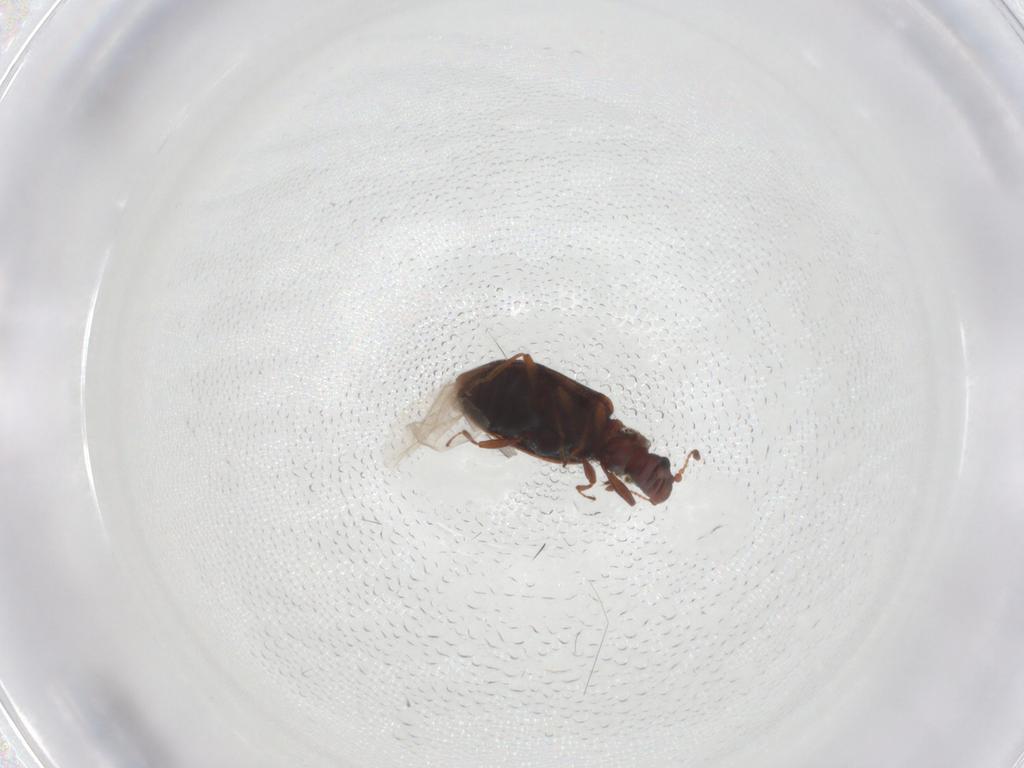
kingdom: Animalia
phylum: Arthropoda
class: Insecta
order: Coleoptera
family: Latridiidae
